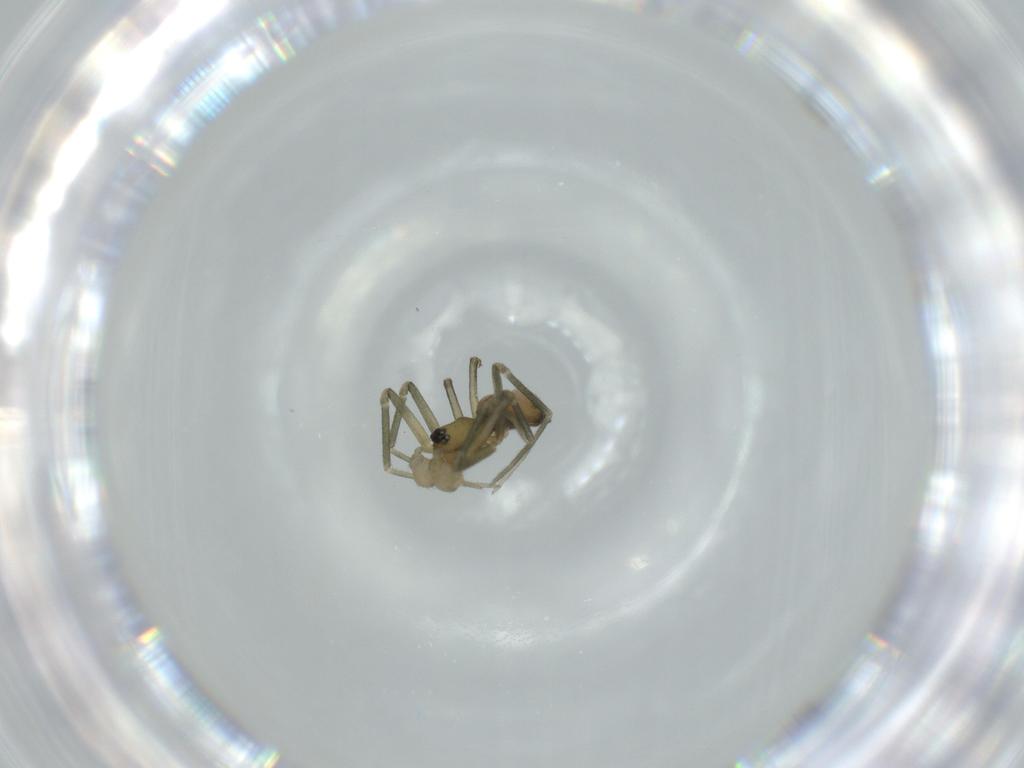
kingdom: Animalia
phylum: Arthropoda
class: Arachnida
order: Araneae
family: Linyphiidae
